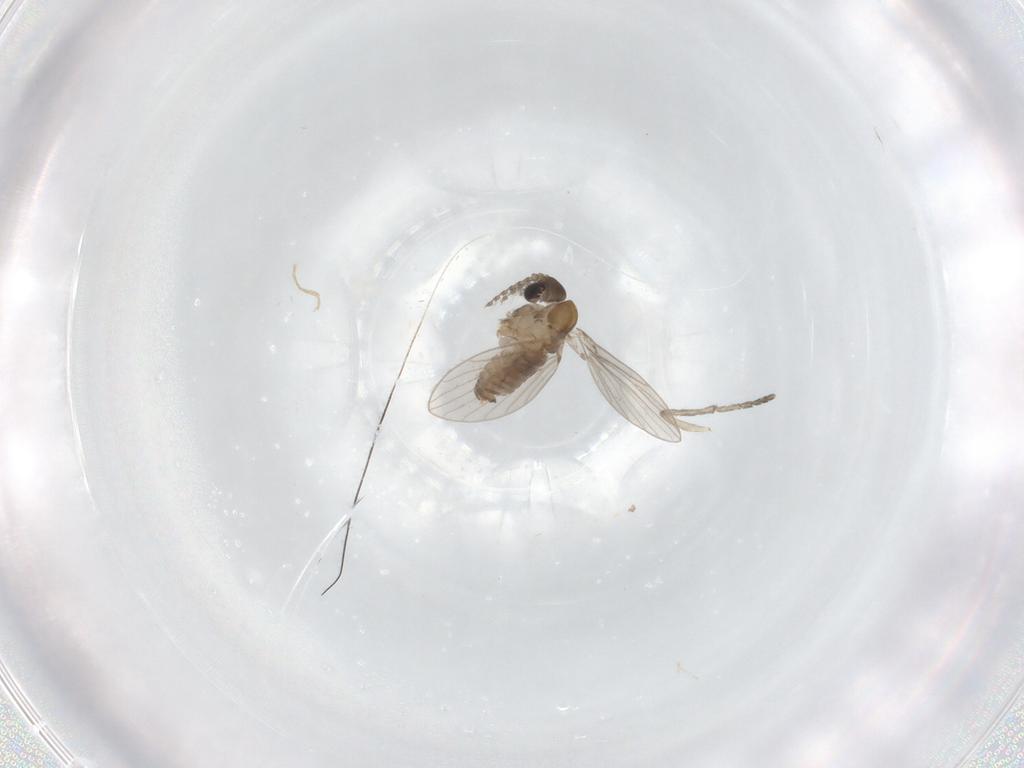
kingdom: Animalia
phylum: Arthropoda
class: Insecta
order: Diptera
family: Psychodidae
